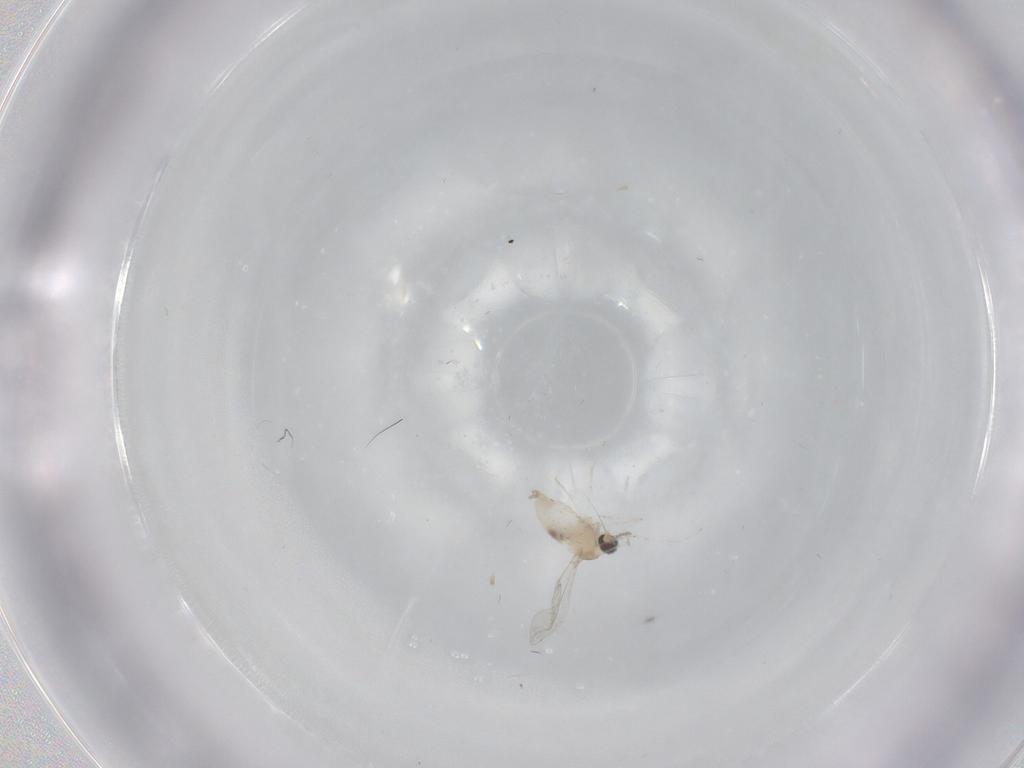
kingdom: Animalia
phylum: Arthropoda
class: Insecta
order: Diptera
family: Cecidomyiidae
